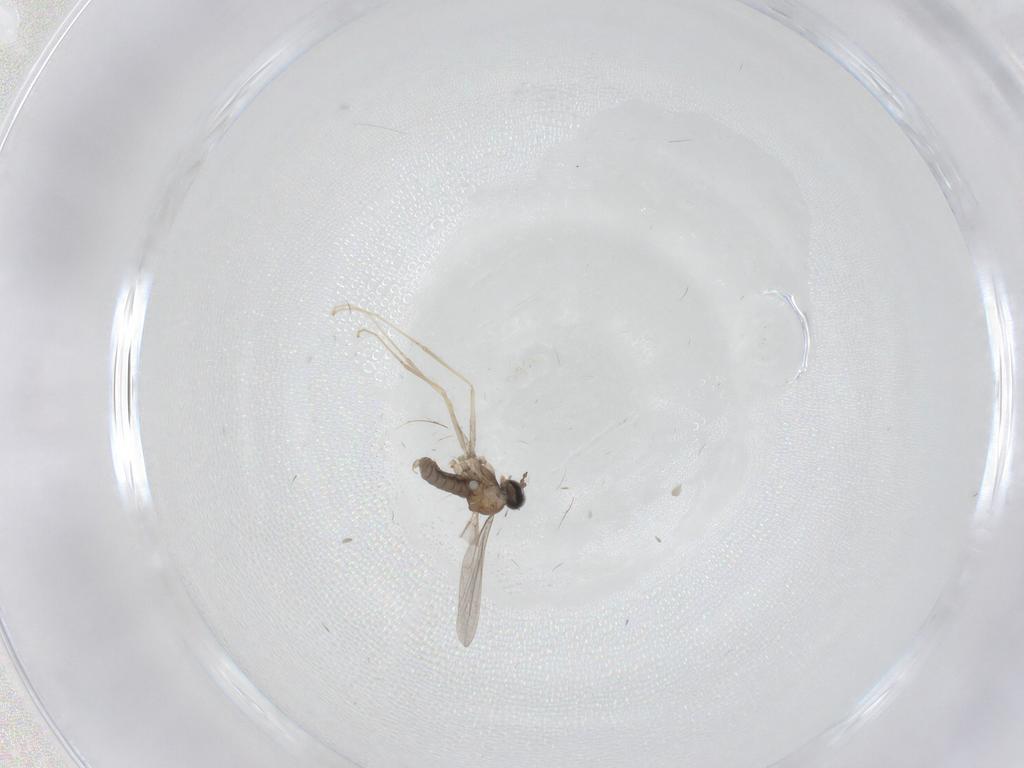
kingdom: Animalia
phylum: Arthropoda
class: Insecta
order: Diptera
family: Cecidomyiidae
